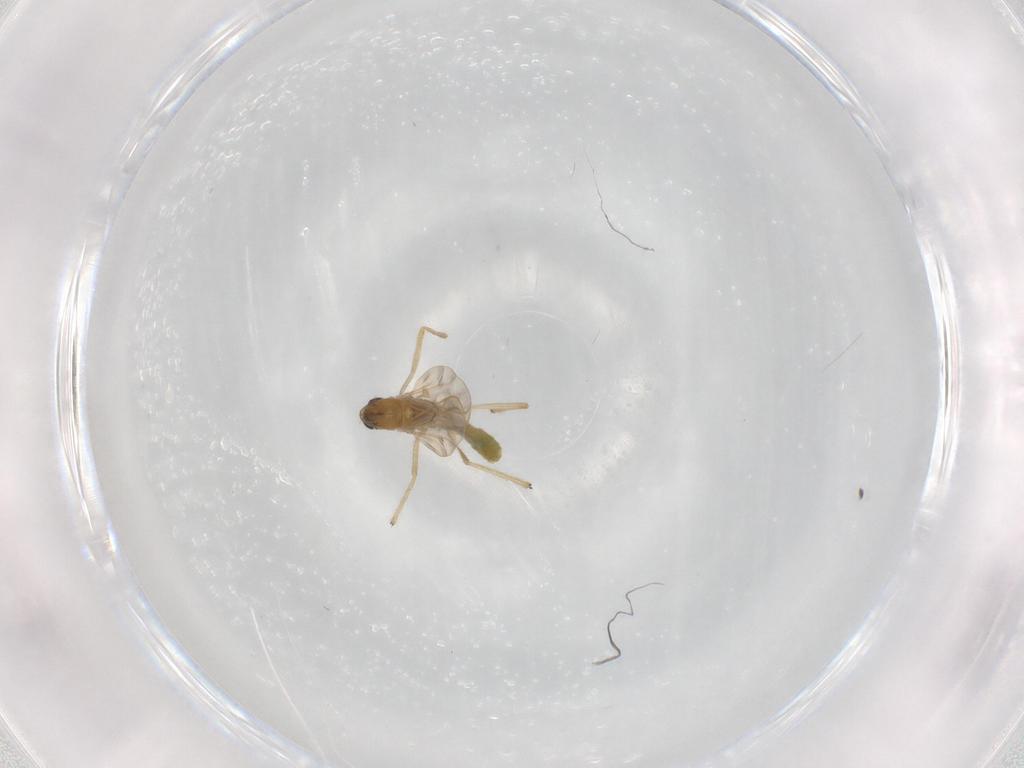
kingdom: Animalia
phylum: Arthropoda
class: Insecta
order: Diptera
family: Chironomidae
